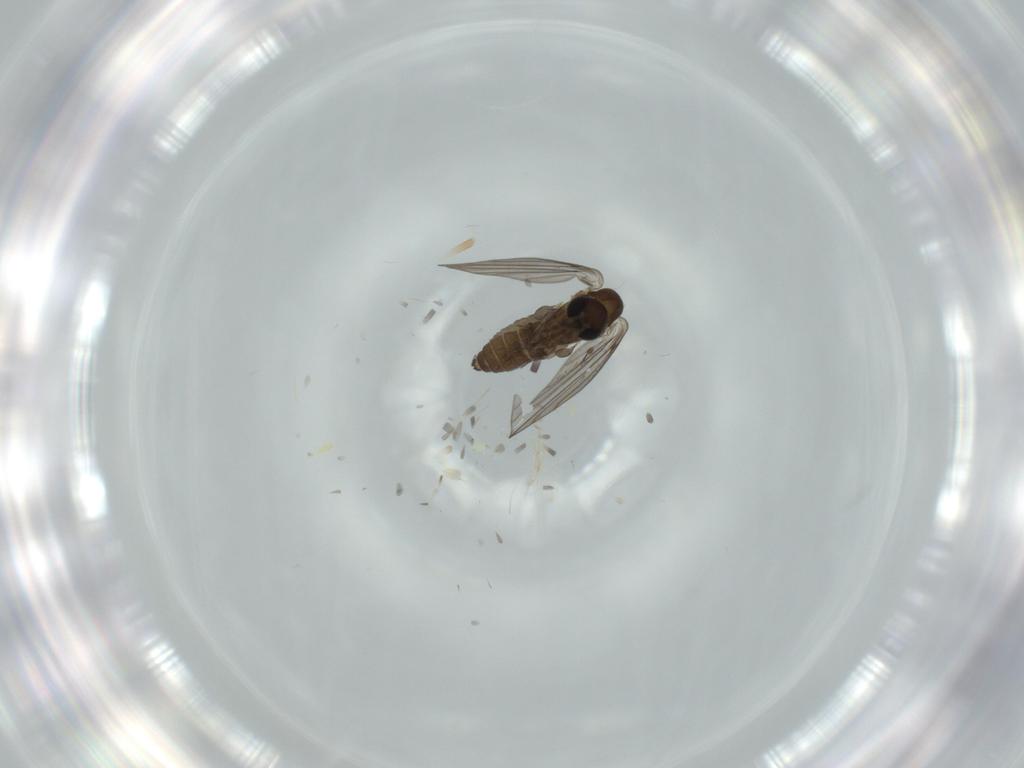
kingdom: Animalia
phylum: Arthropoda
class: Insecta
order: Diptera
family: Psychodidae
